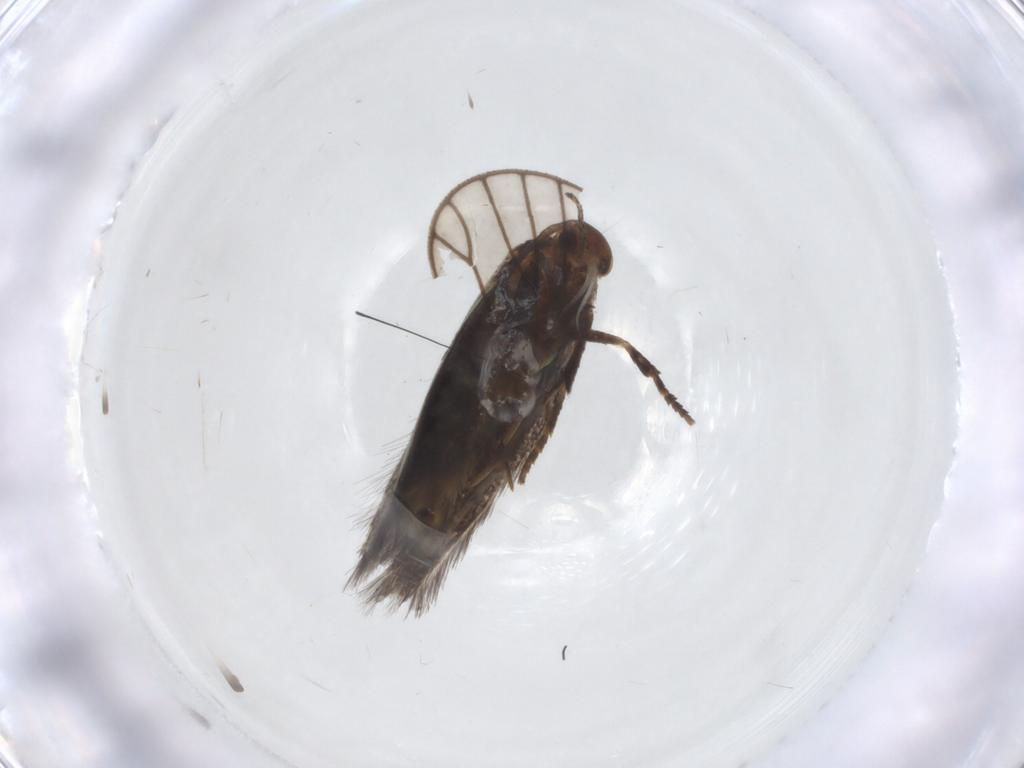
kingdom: Animalia
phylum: Arthropoda
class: Insecta
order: Lepidoptera
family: Elachistidae
